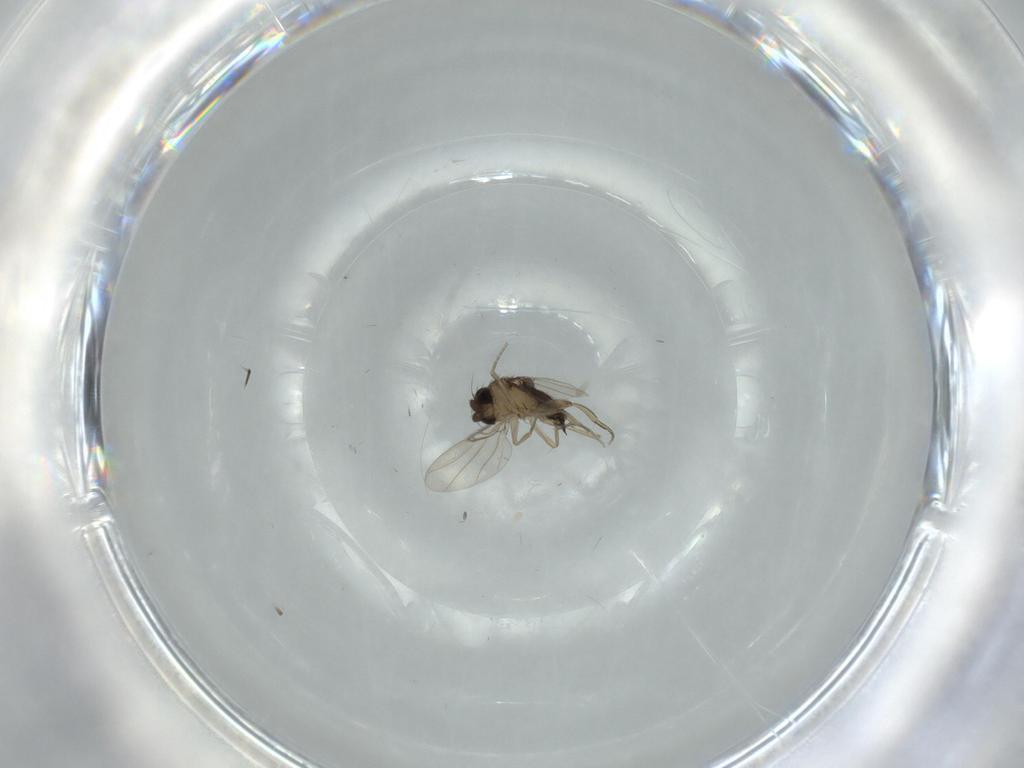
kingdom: Animalia
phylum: Arthropoda
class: Insecta
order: Diptera
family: Phoridae
